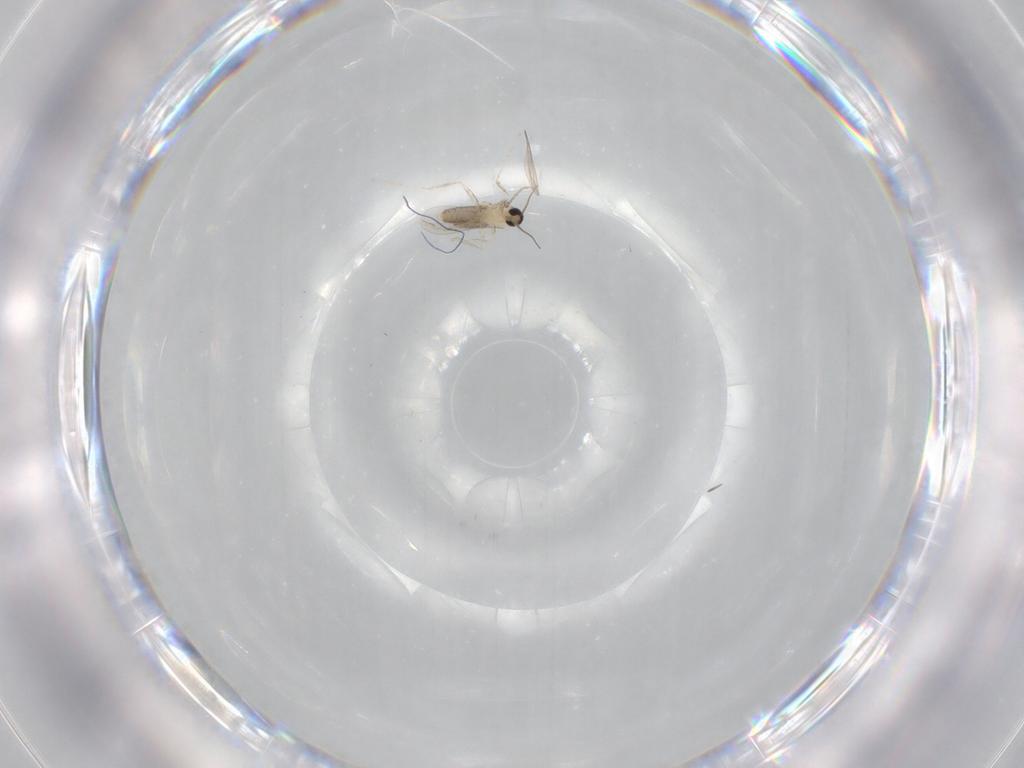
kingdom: Animalia
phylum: Arthropoda
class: Insecta
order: Diptera
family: Cecidomyiidae
